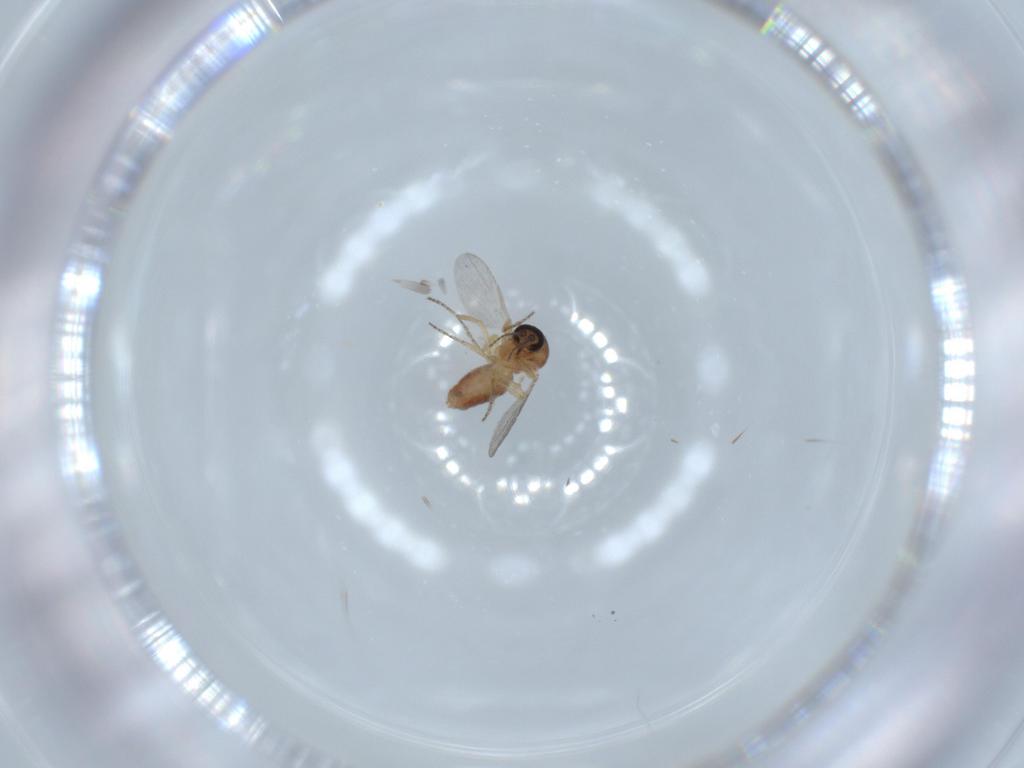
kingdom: Animalia
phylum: Arthropoda
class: Insecta
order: Diptera
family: Ceratopogonidae
